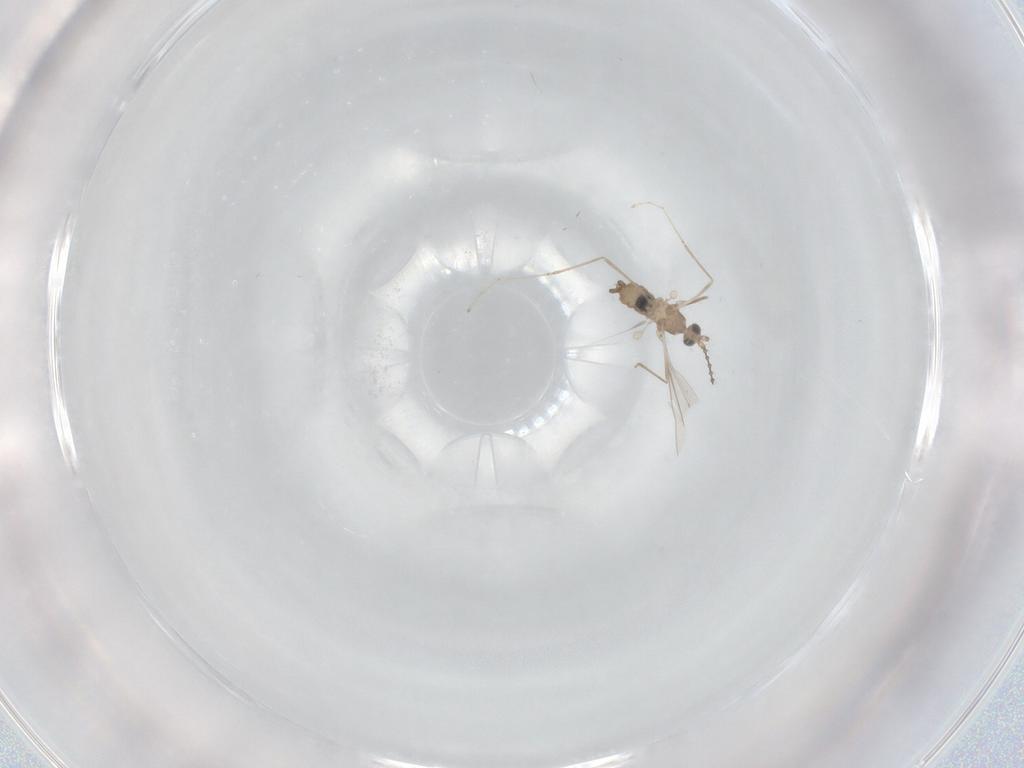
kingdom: Animalia
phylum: Arthropoda
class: Insecta
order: Diptera
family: Cecidomyiidae
